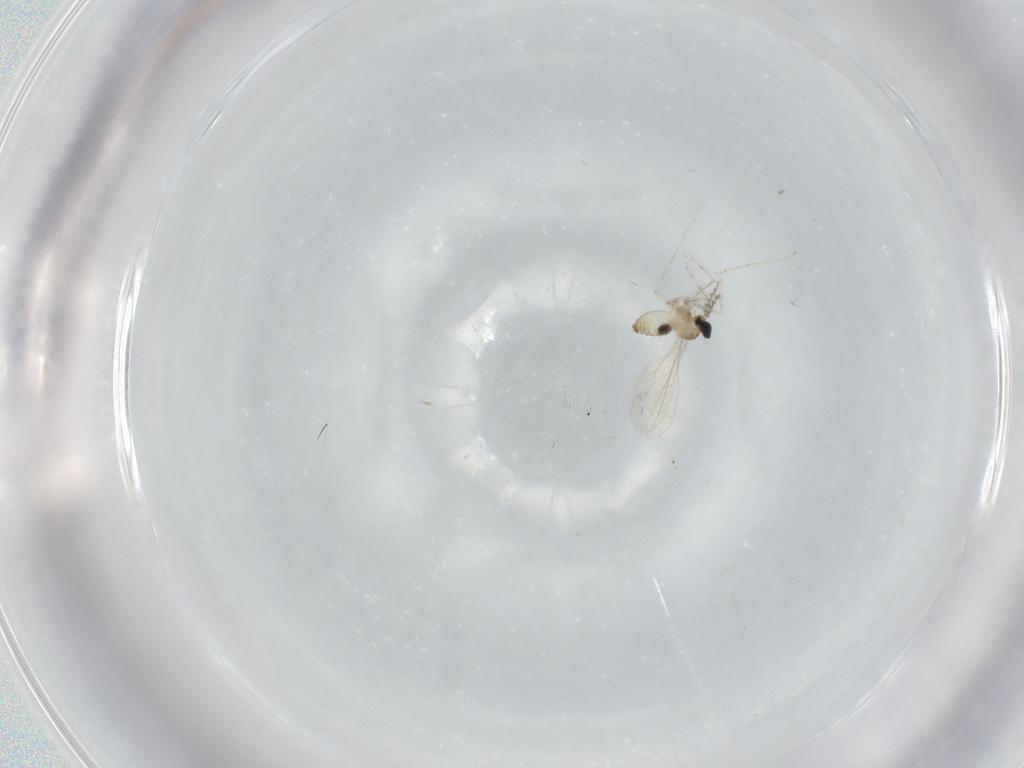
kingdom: Animalia
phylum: Arthropoda
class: Insecta
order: Diptera
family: Cecidomyiidae
